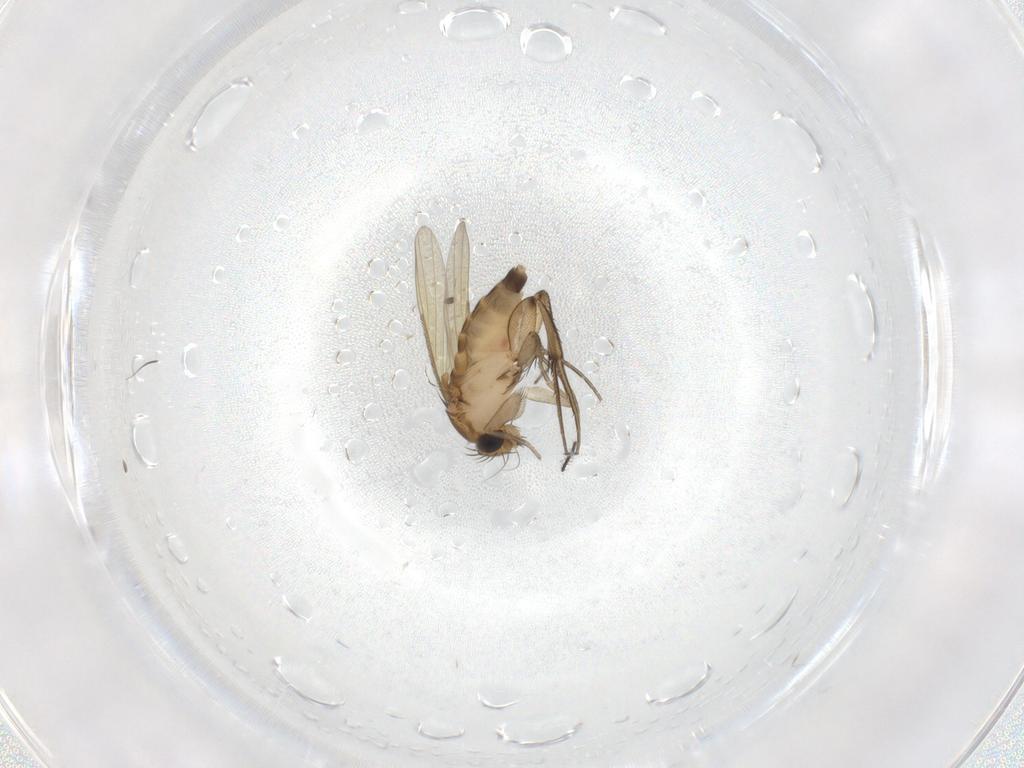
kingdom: Animalia
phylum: Arthropoda
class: Insecta
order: Diptera
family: Phoridae
